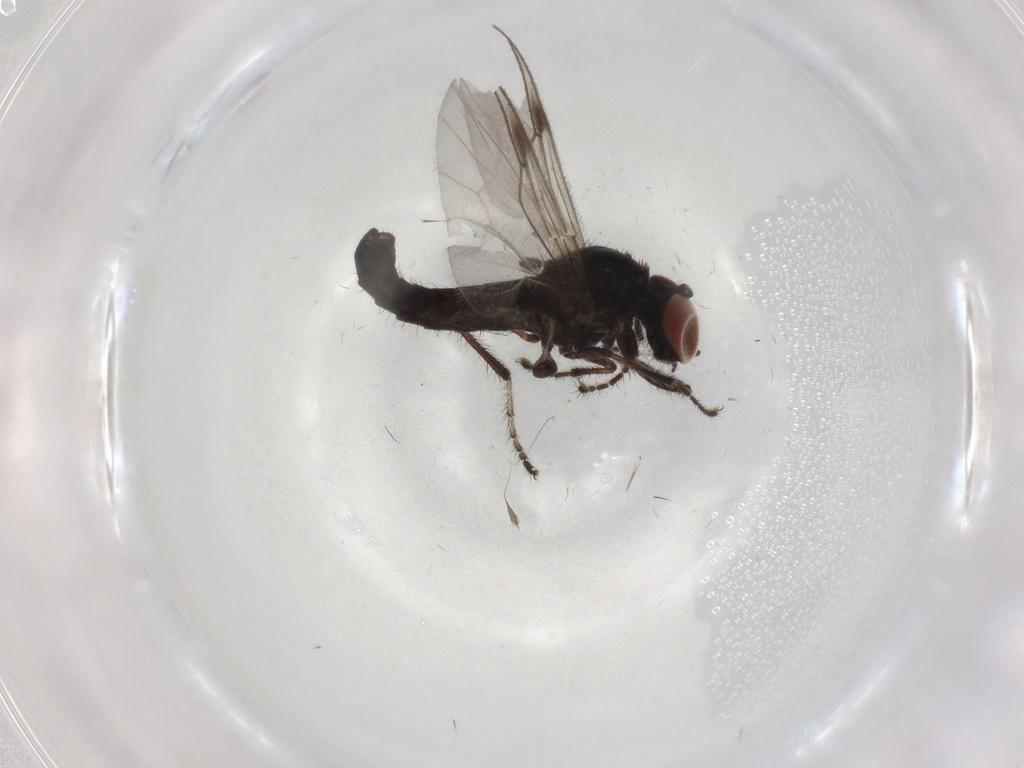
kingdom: Animalia
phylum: Arthropoda
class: Insecta
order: Diptera
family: Bibionidae
